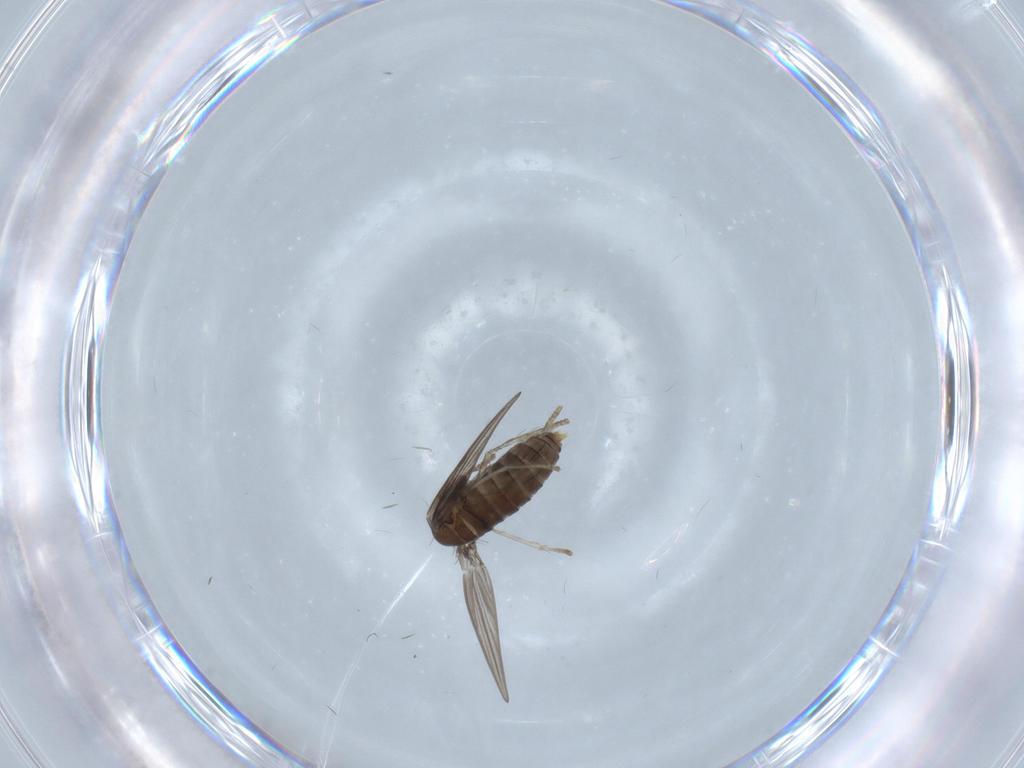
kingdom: Animalia
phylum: Arthropoda
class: Insecta
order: Diptera
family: Psychodidae
